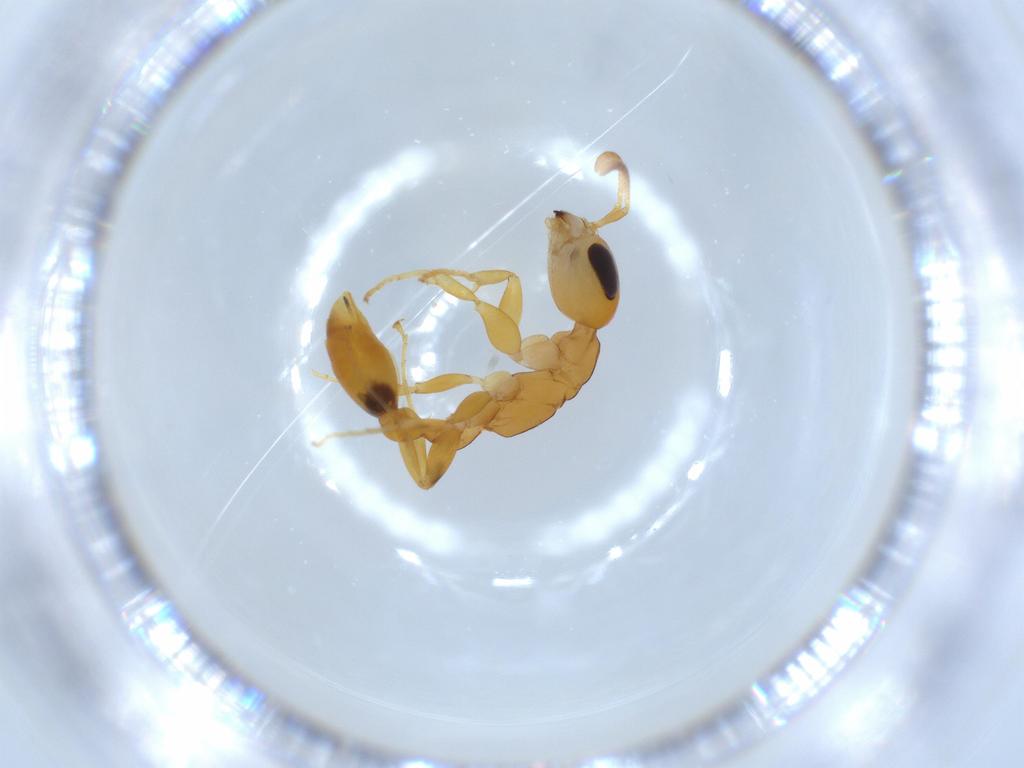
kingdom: Animalia
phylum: Arthropoda
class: Insecta
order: Hymenoptera
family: Formicidae
